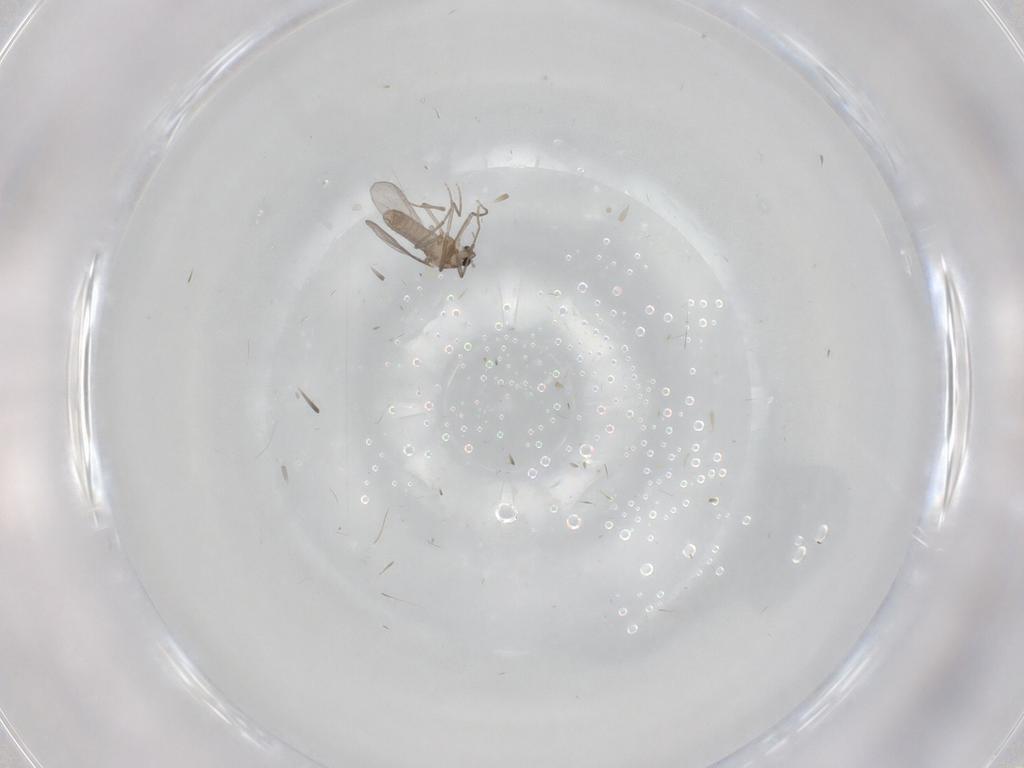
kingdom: Animalia
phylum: Arthropoda
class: Insecta
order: Diptera
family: Chironomidae
